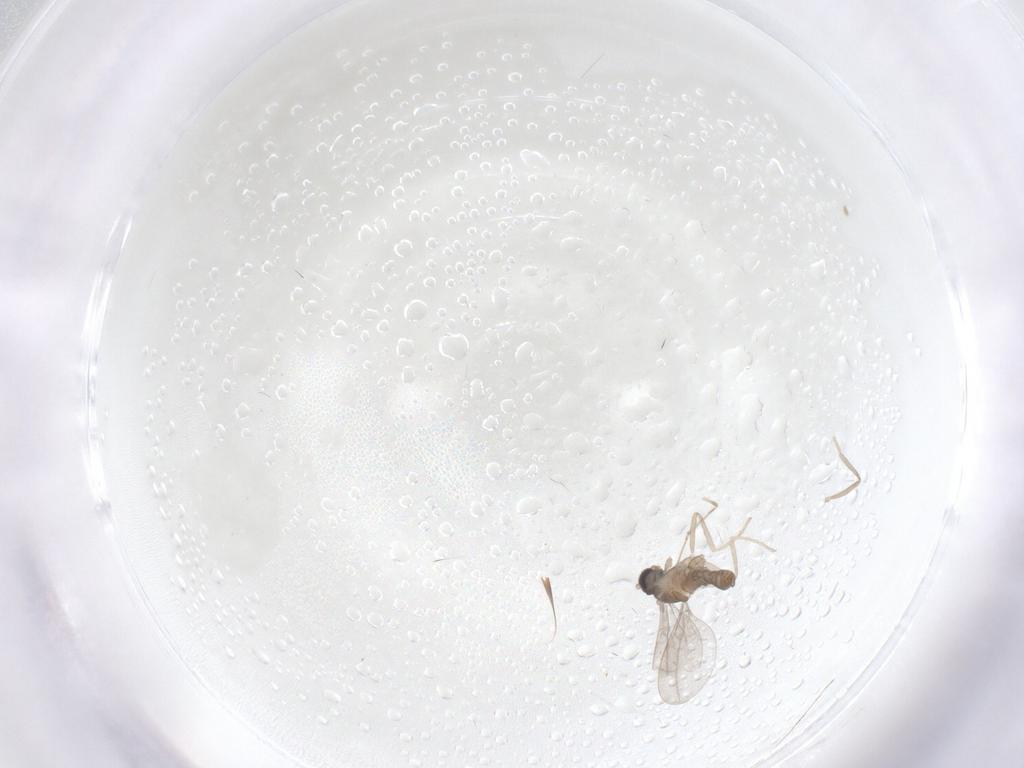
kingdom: Animalia
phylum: Arthropoda
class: Insecta
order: Diptera
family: Cecidomyiidae
